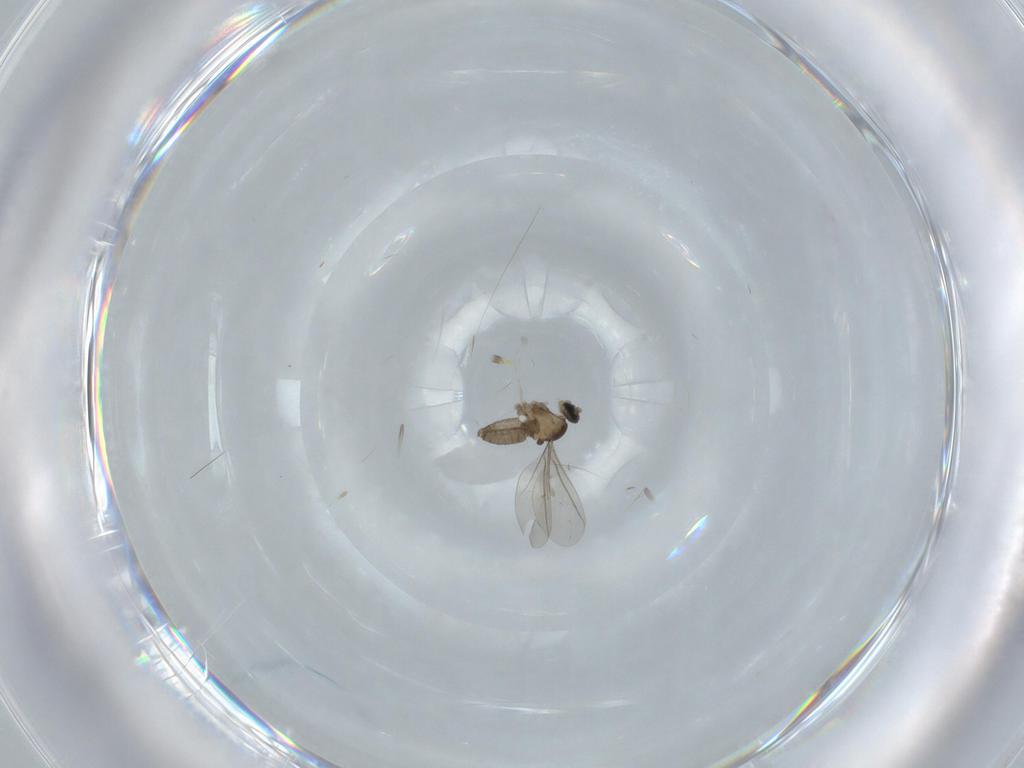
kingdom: Animalia
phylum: Arthropoda
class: Insecta
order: Diptera
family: Cecidomyiidae
